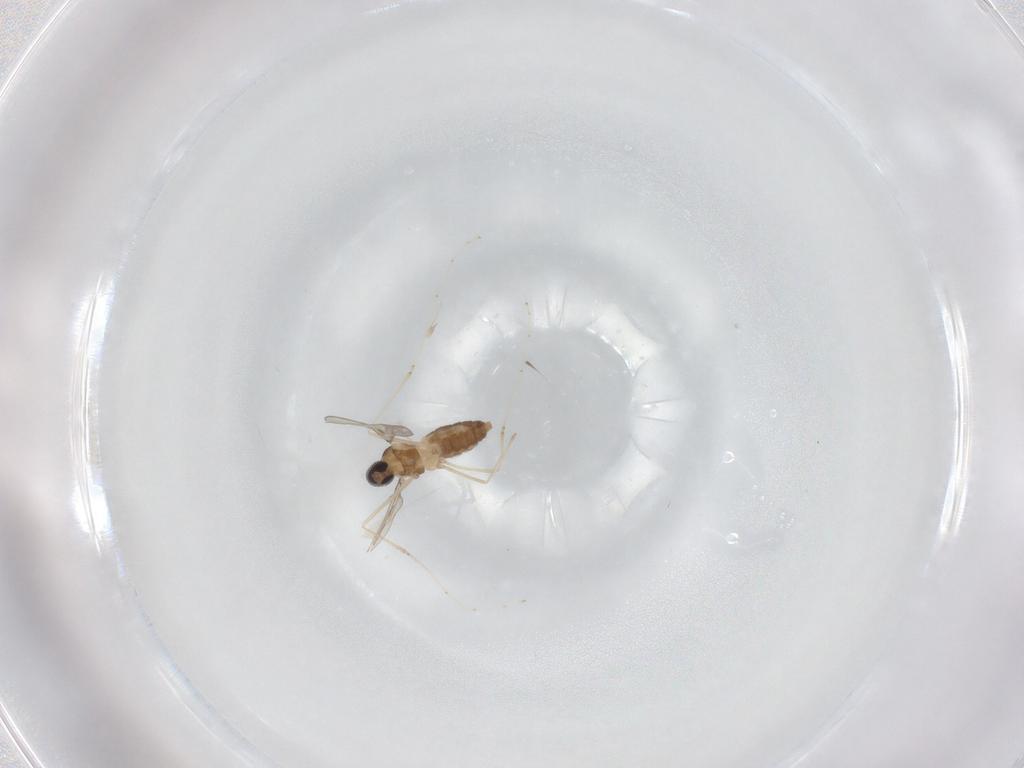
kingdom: Animalia
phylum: Arthropoda
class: Insecta
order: Diptera
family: Cecidomyiidae
